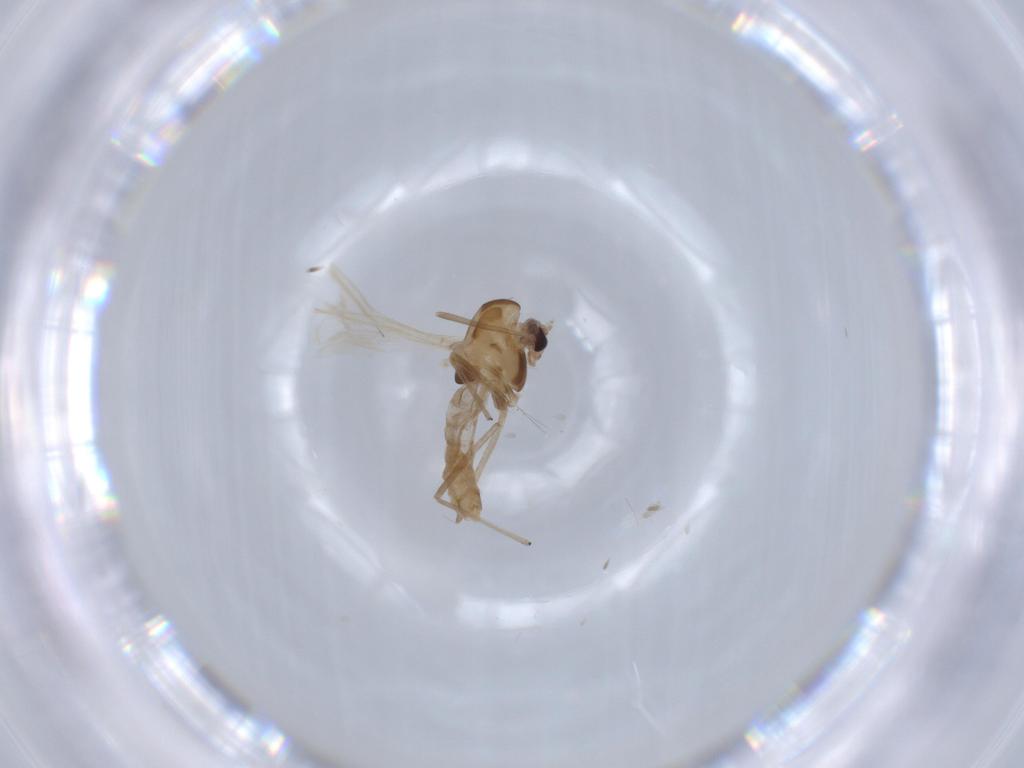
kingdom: Animalia
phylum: Arthropoda
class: Insecta
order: Diptera
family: Chironomidae
